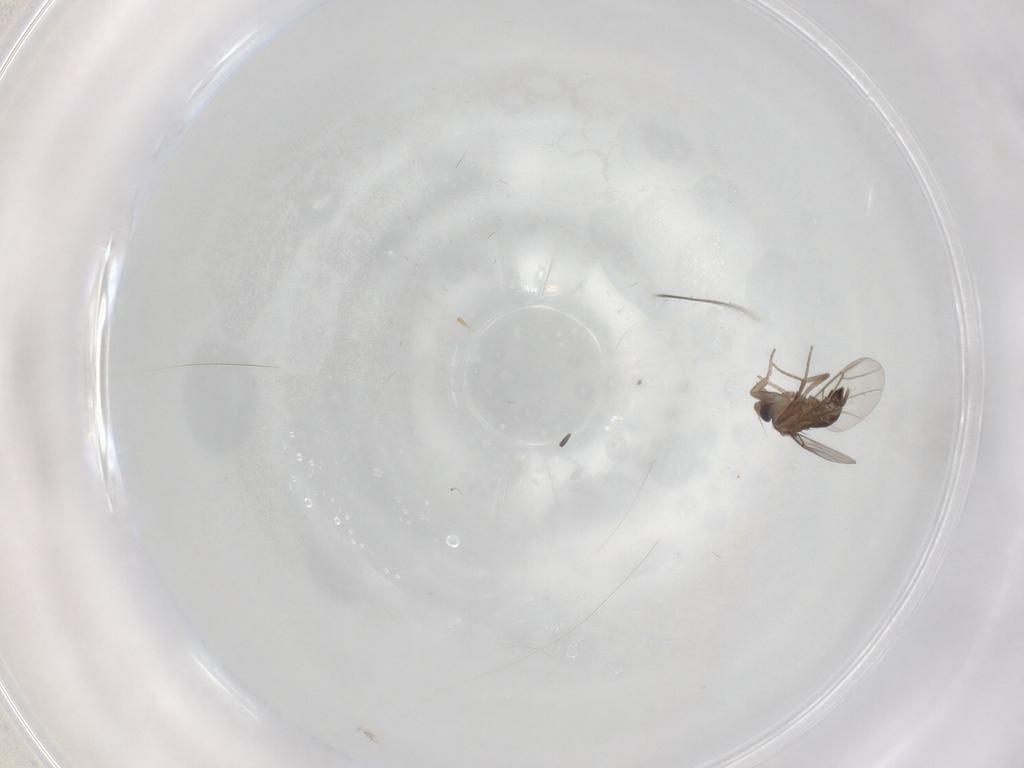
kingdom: Animalia
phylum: Arthropoda
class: Insecta
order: Diptera
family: Phoridae
